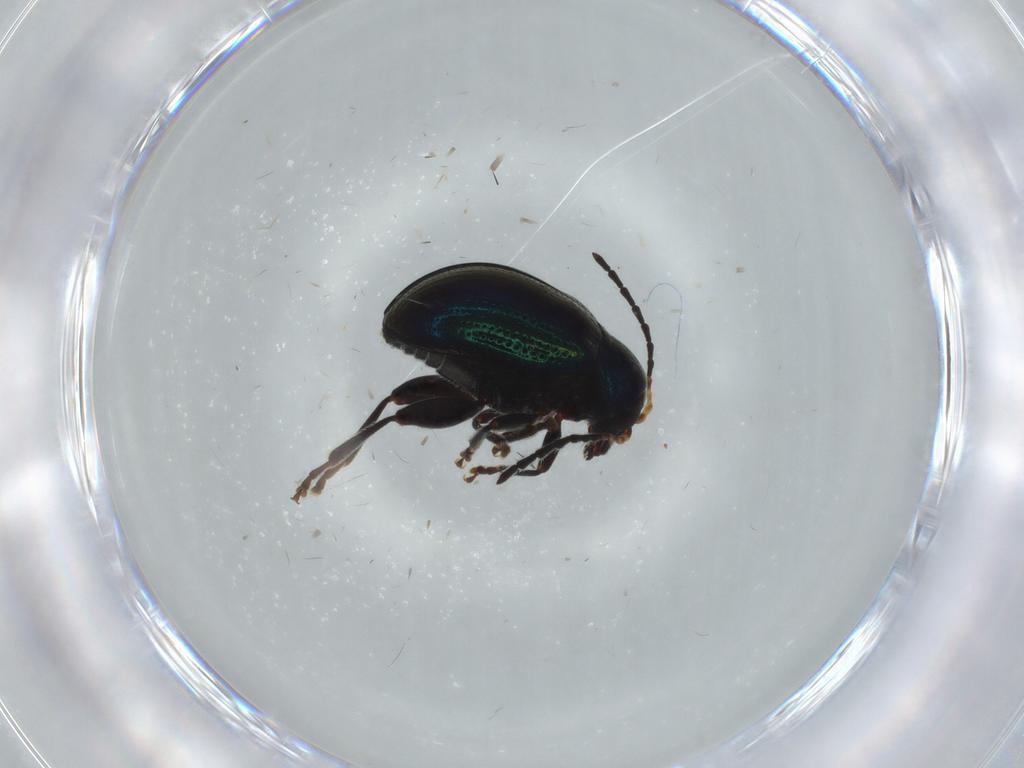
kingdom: Animalia
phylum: Arthropoda
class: Insecta
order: Coleoptera
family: Chrysomelidae
